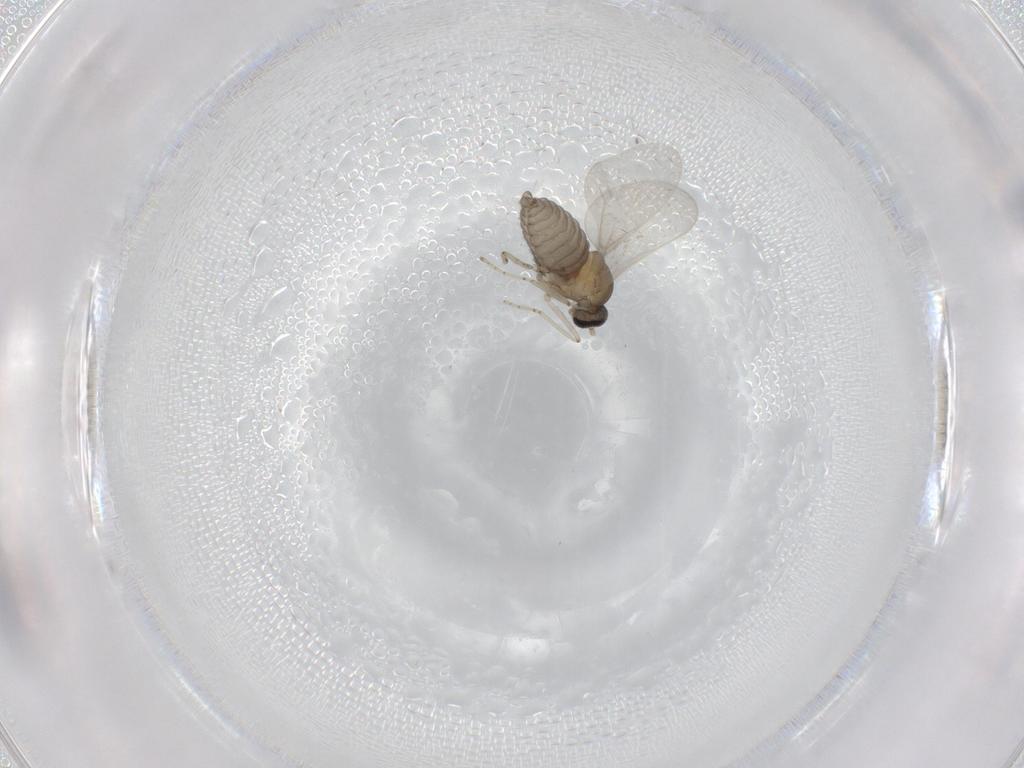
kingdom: Animalia
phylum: Arthropoda
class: Insecta
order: Diptera
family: Cecidomyiidae
